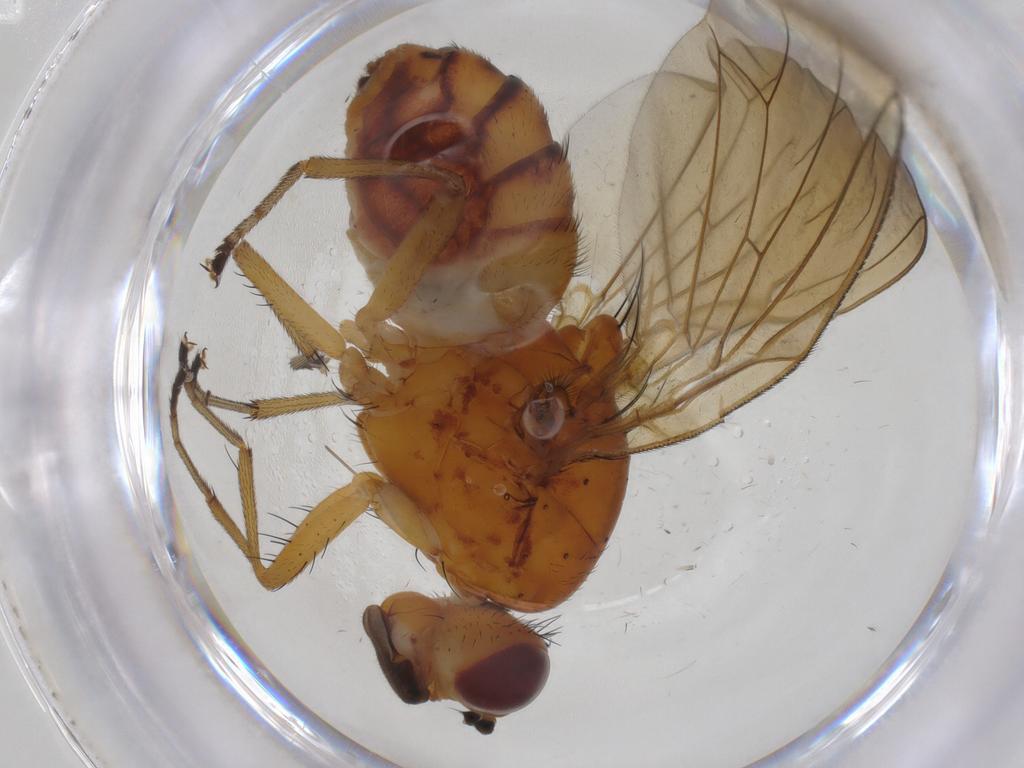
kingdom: Animalia
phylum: Arthropoda
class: Insecta
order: Diptera
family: Lauxaniidae
